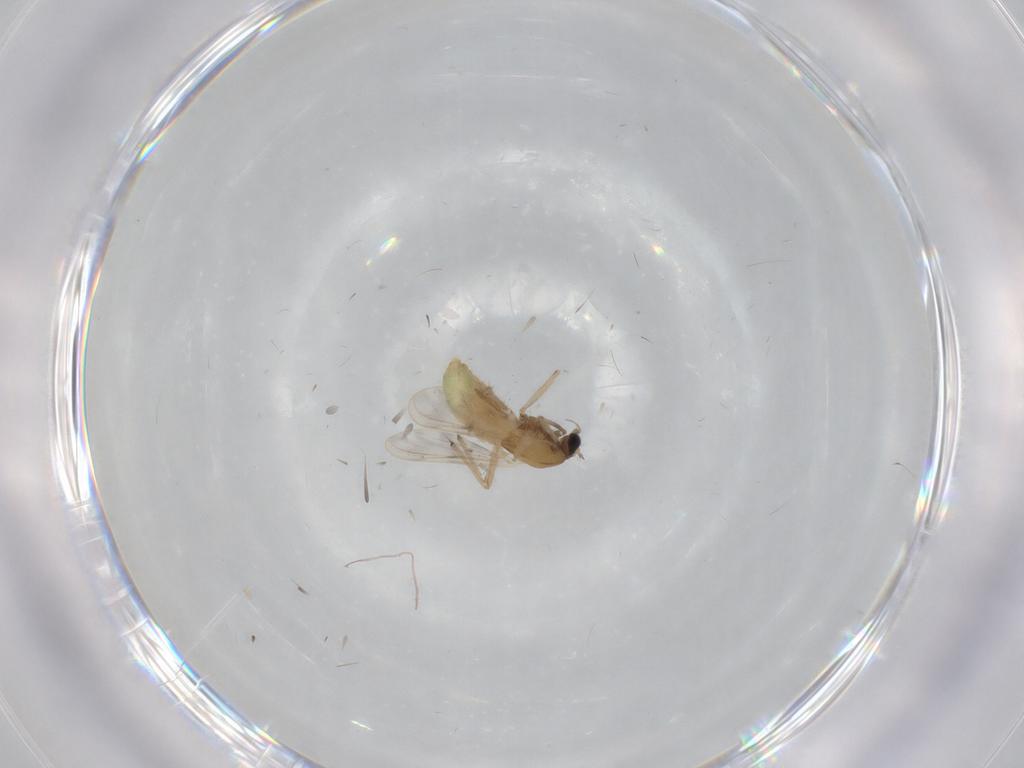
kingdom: Animalia
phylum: Arthropoda
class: Insecta
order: Diptera
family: Chironomidae
